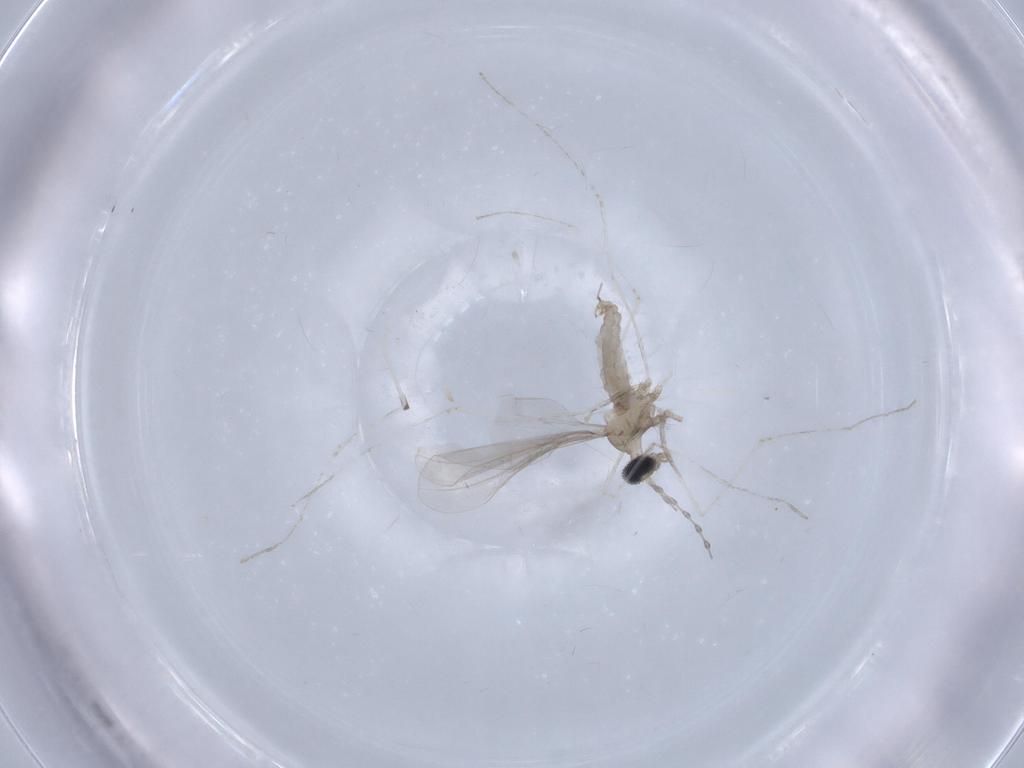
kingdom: Animalia
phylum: Arthropoda
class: Insecta
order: Diptera
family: Chironomidae
